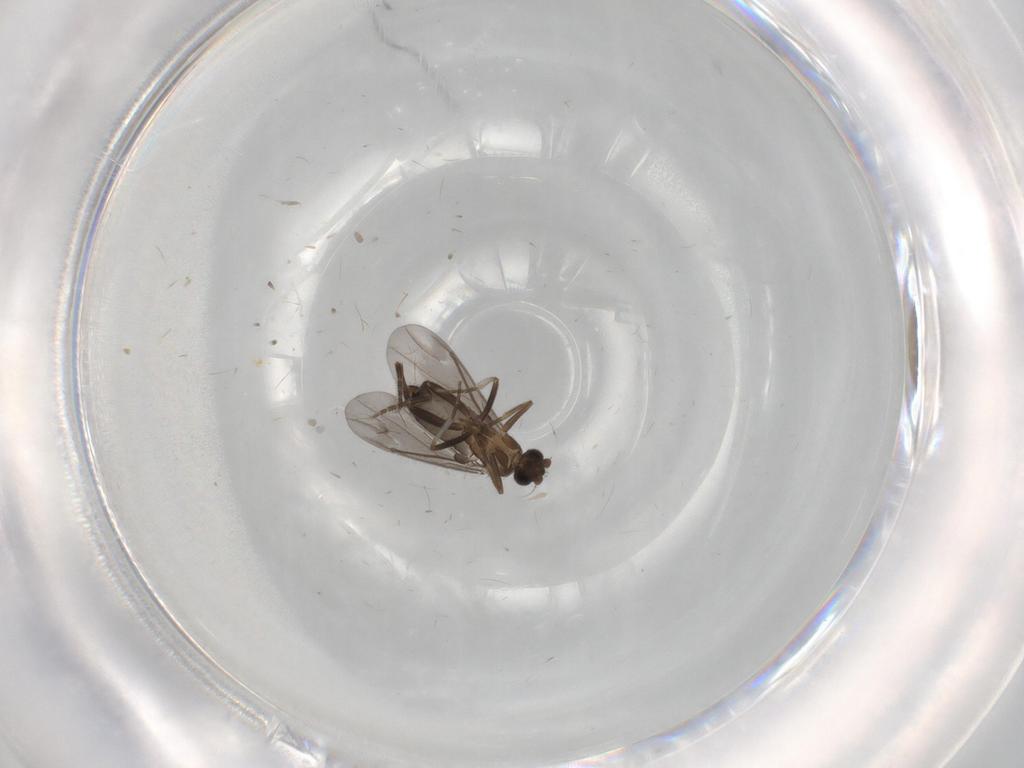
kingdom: Animalia
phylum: Arthropoda
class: Insecta
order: Diptera
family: Phoridae
